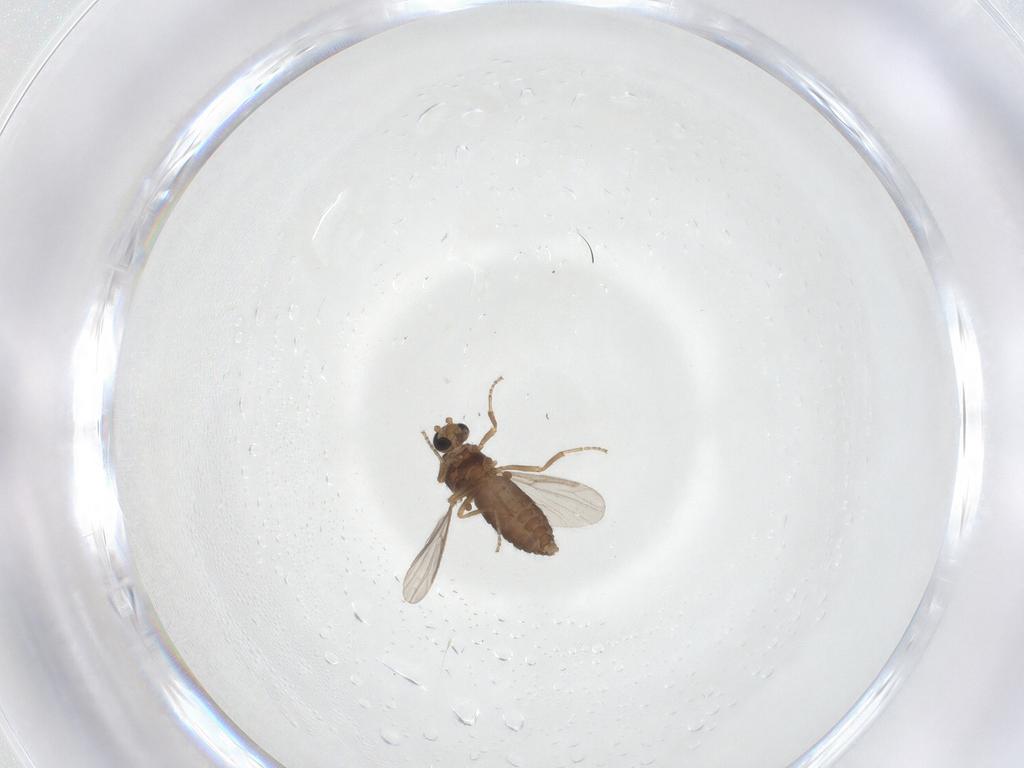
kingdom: Animalia
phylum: Arthropoda
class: Insecta
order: Diptera
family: Ceratopogonidae
